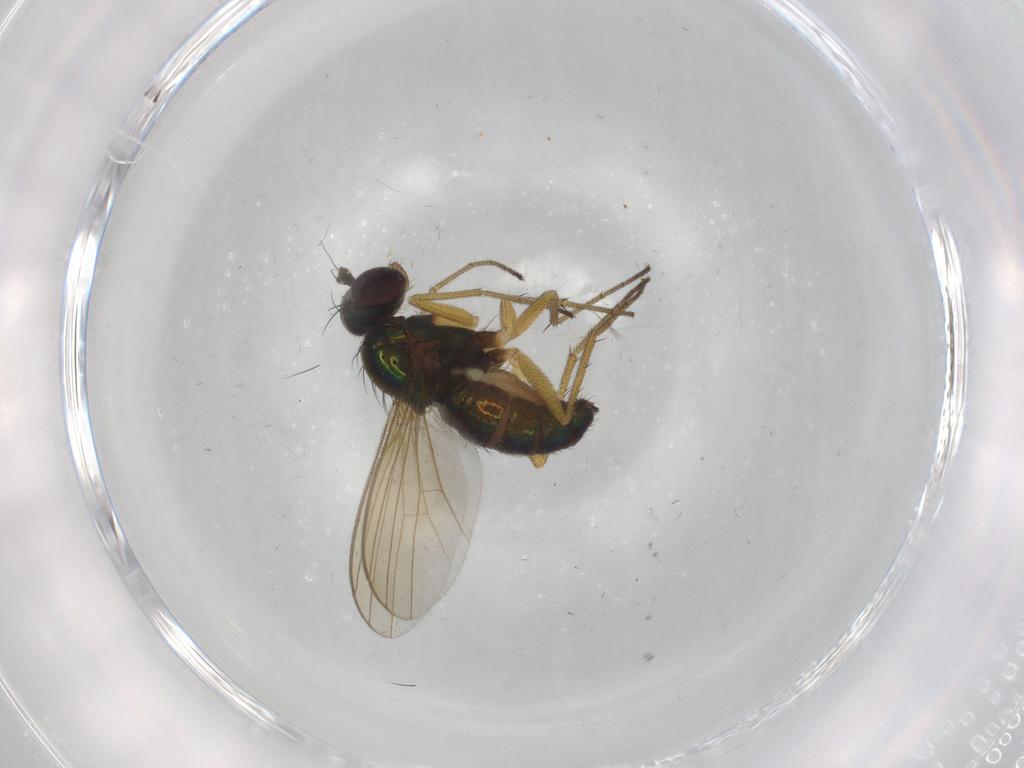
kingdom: Animalia
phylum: Arthropoda
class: Insecta
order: Diptera
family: Dolichopodidae
